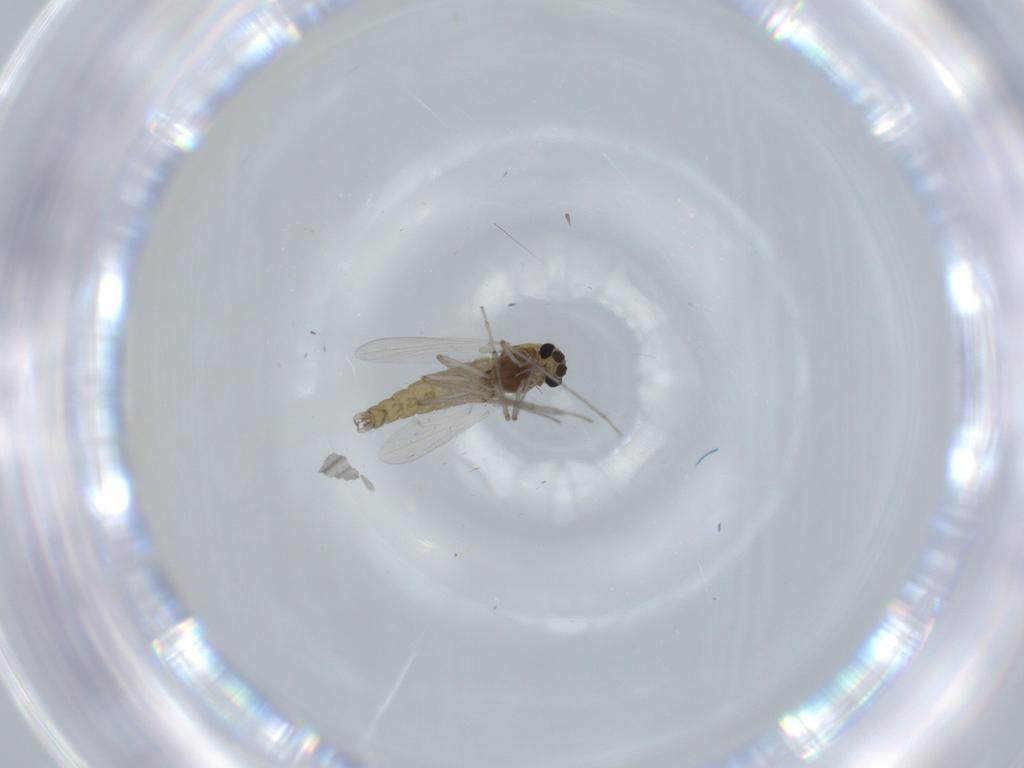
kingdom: Animalia
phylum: Arthropoda
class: Insecta
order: Diptera
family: Chironomidae
